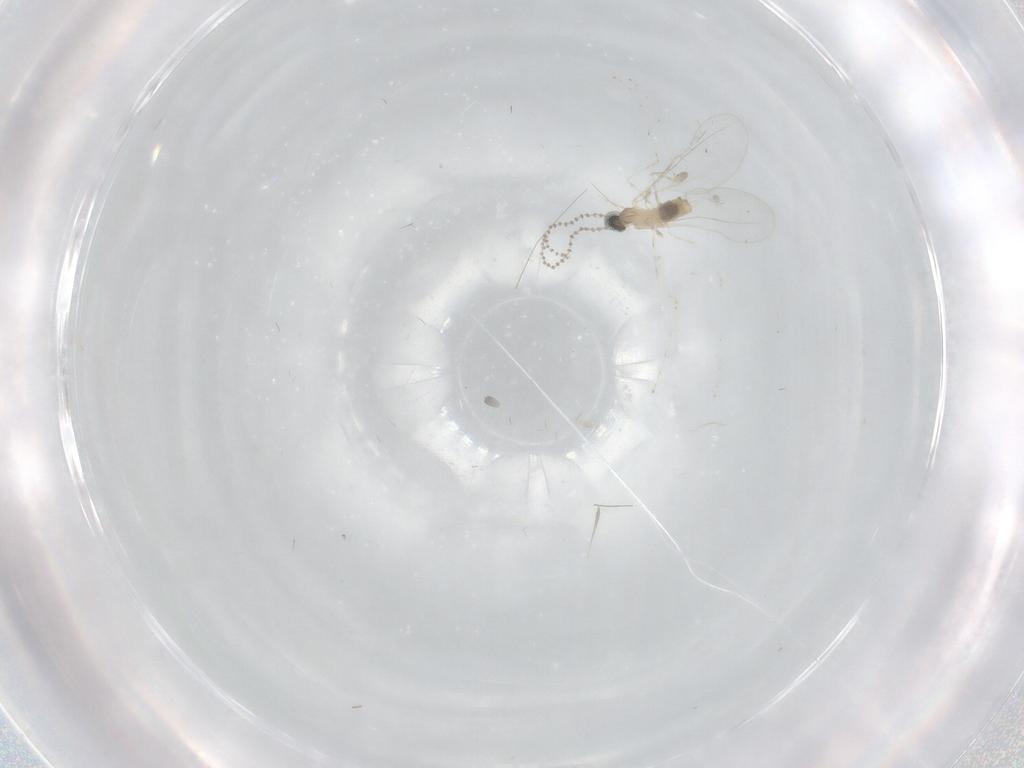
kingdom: Animalia
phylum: Arthropoda
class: Insecta
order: Diptera
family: Cecidomyiidae
